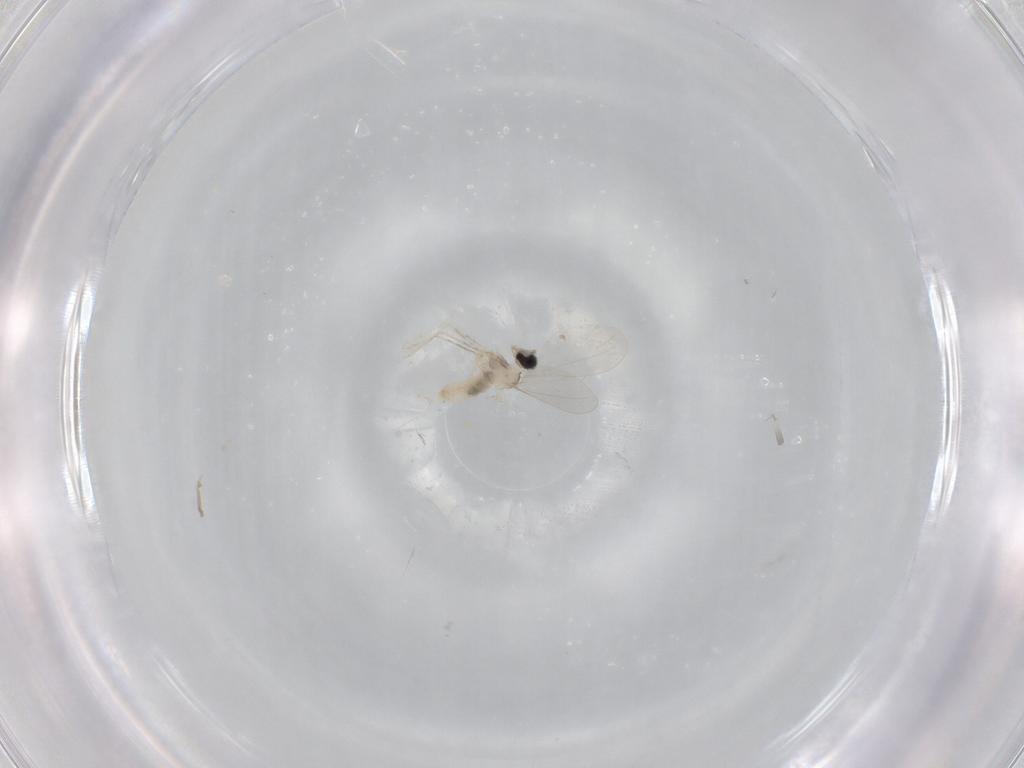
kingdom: Animalia
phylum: Arthropoda
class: Insecta
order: Diptera
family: Cecidomyiidae
